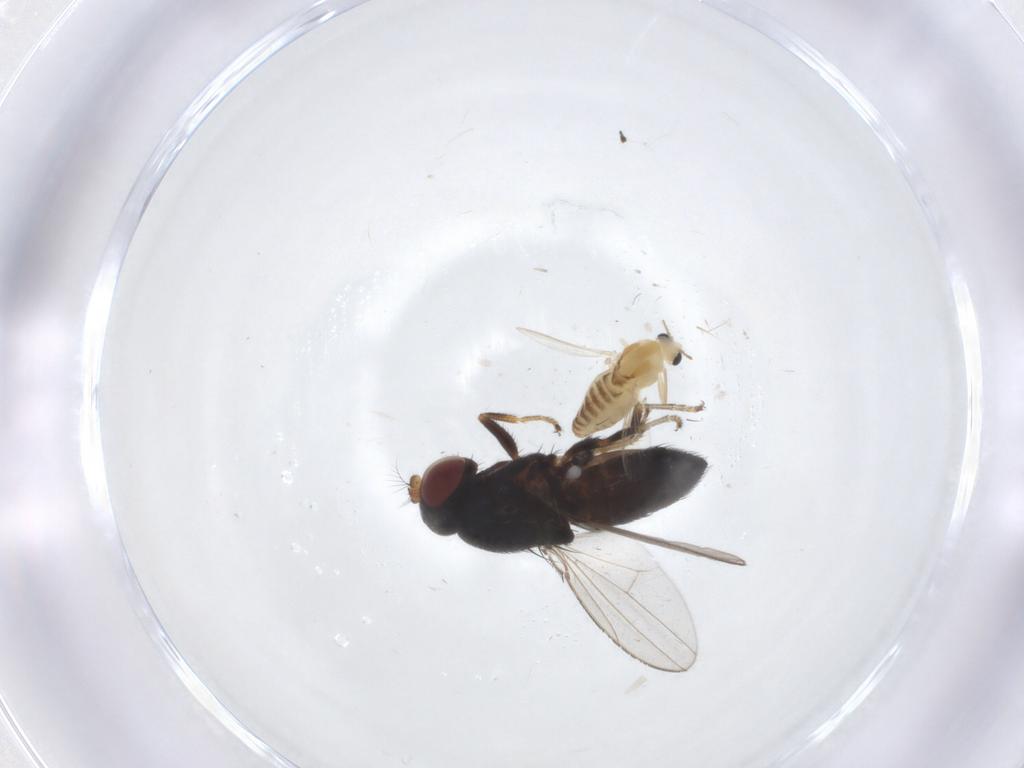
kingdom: Animalia
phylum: Arthropoda
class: Insecta
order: Diptera
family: Ephydridae
